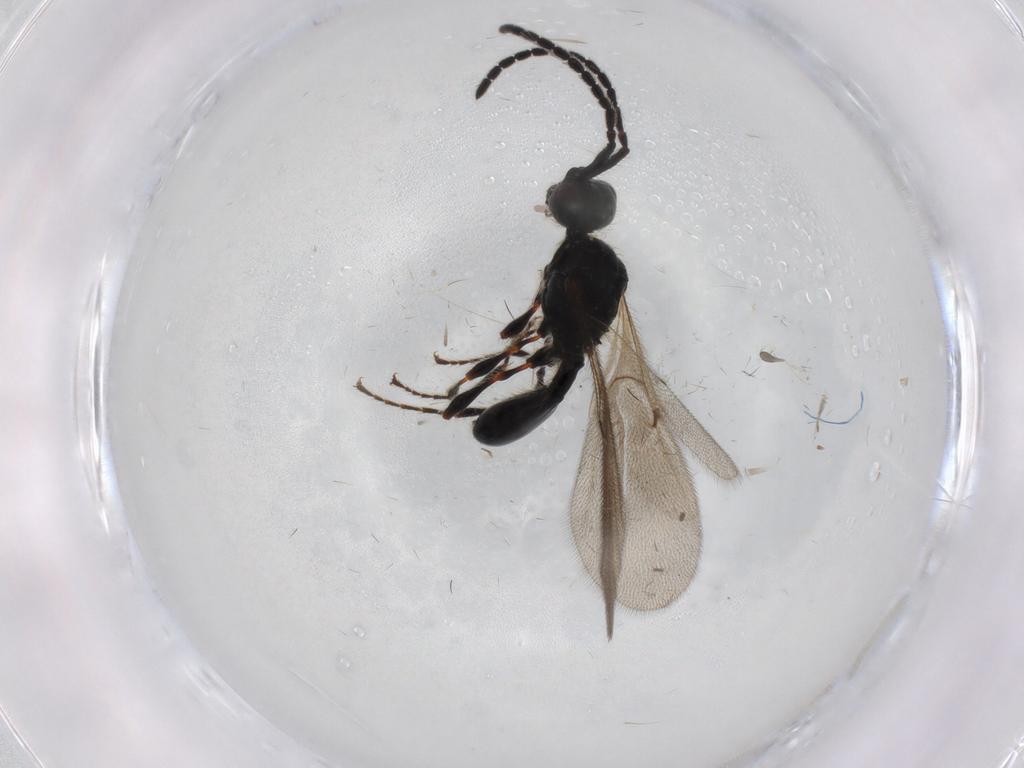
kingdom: Animalia
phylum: Arthropoda
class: Insecta
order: Hymenoptera
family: Diapriidae
